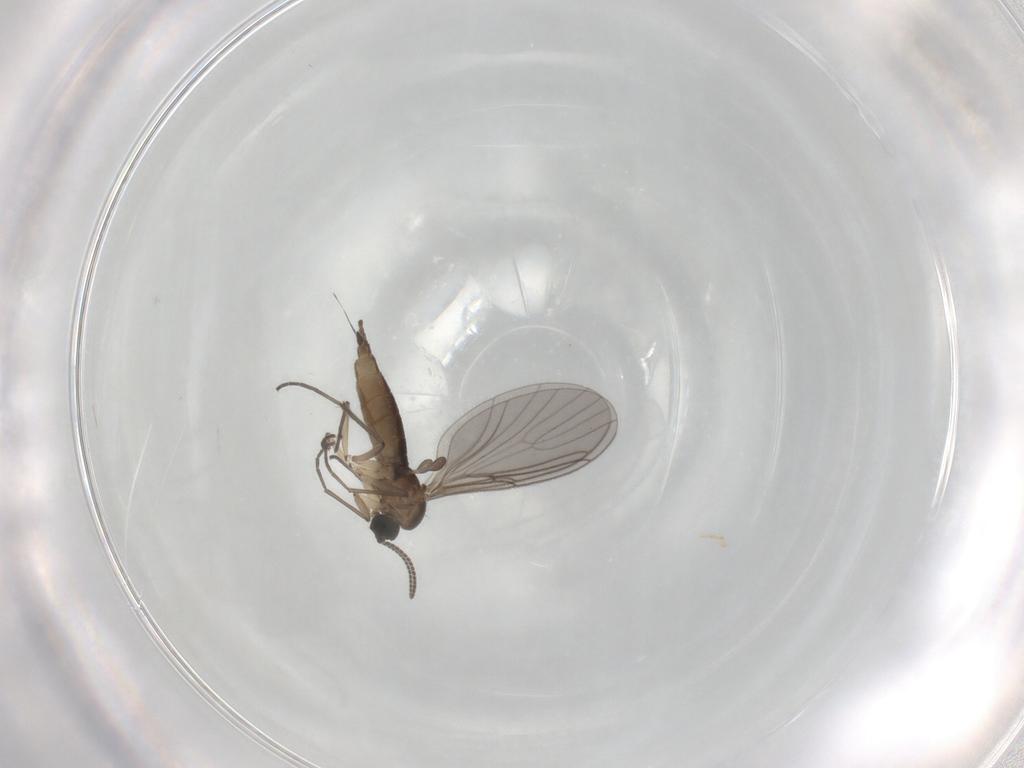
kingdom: Animalia
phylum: Arthropoda
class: Insecta
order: Diptera
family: Sciaridae
